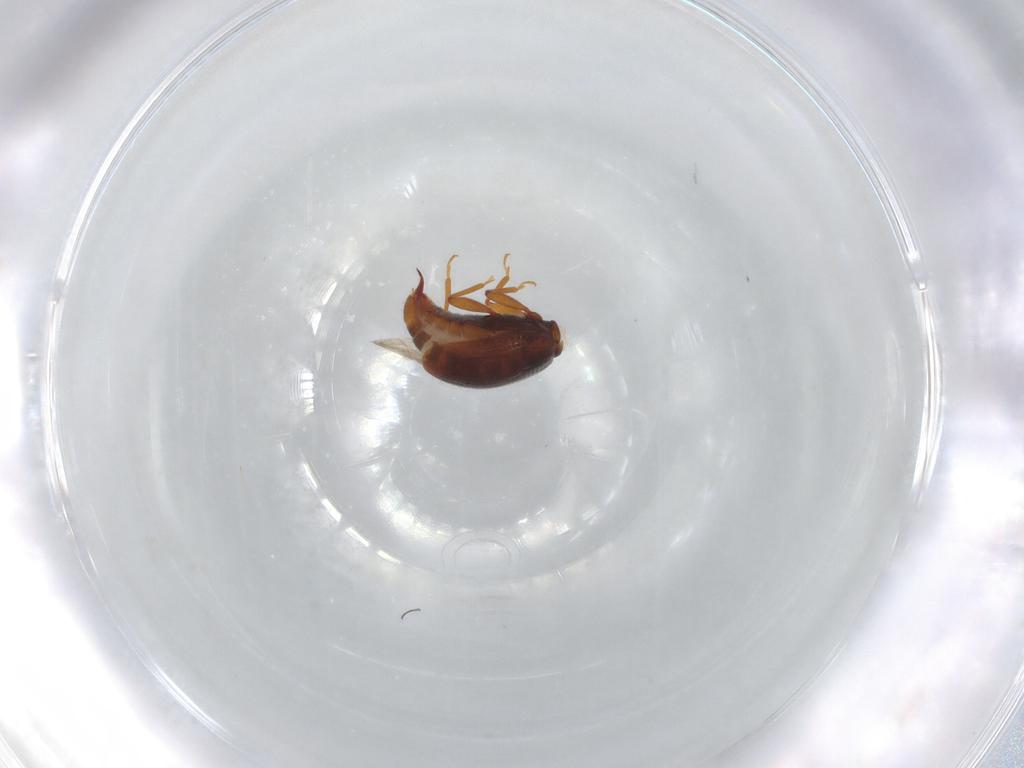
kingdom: Animalia
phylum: Arthropoda
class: Insecta
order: Coleoptera
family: Latridiidae
